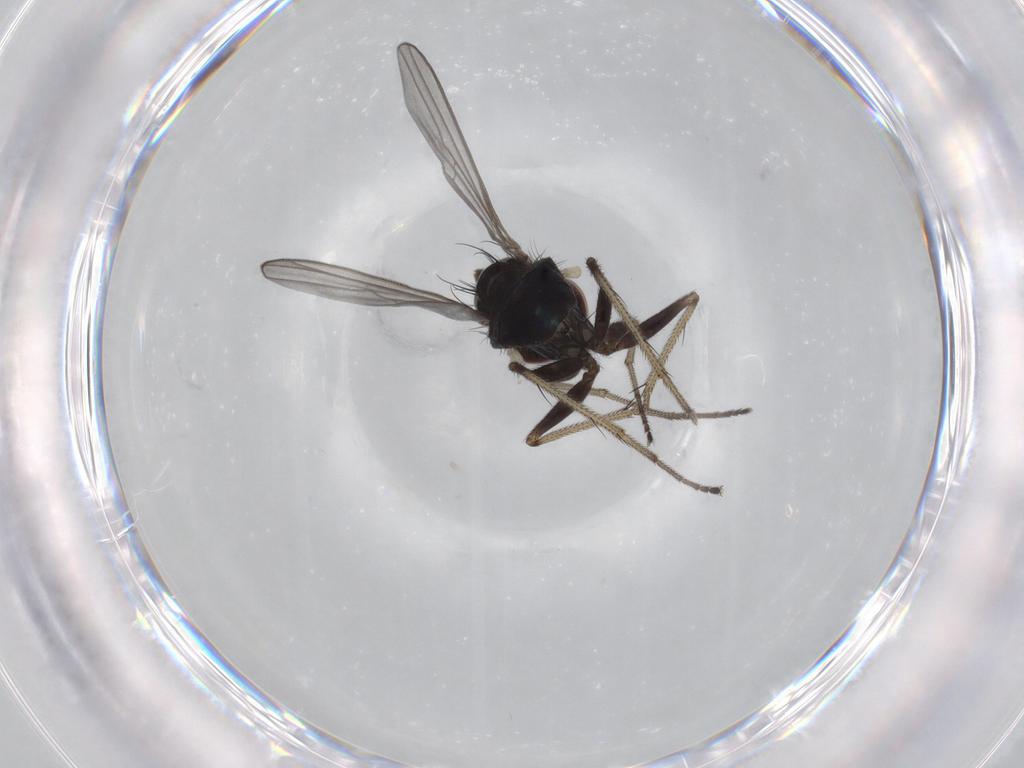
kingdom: Animalia
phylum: Arthropoda
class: Insecta
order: Diptera
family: Dolichopodidae
